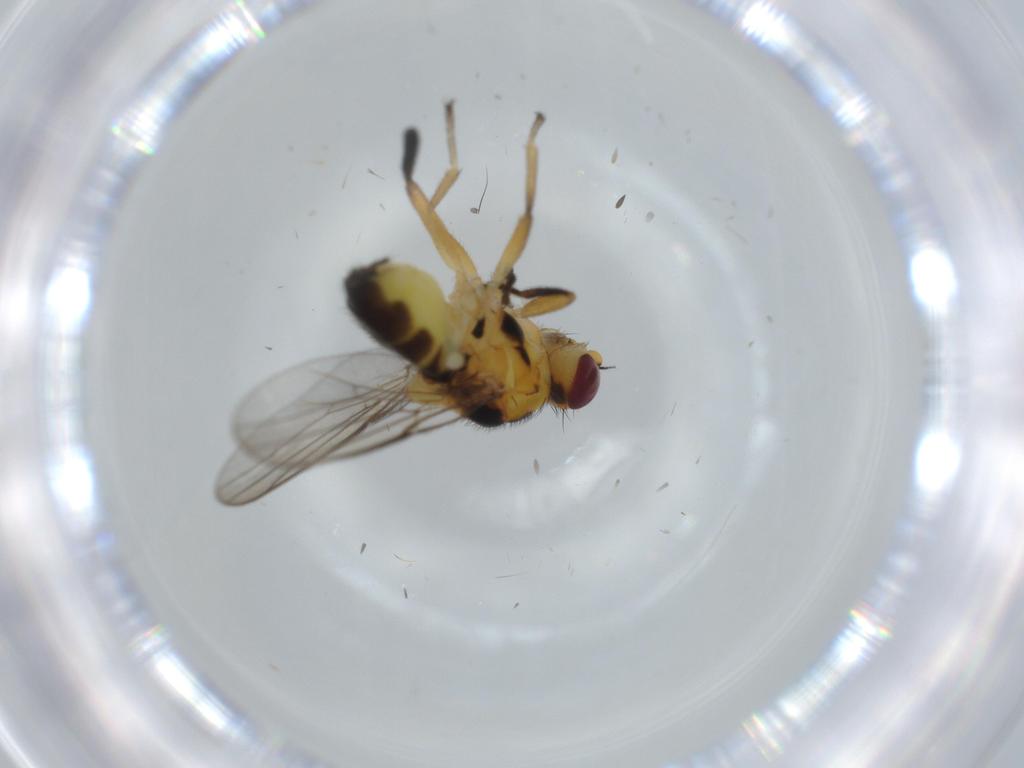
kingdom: Animalia
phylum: Arthropoda
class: Insecta
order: Diptera
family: Chloropidae
